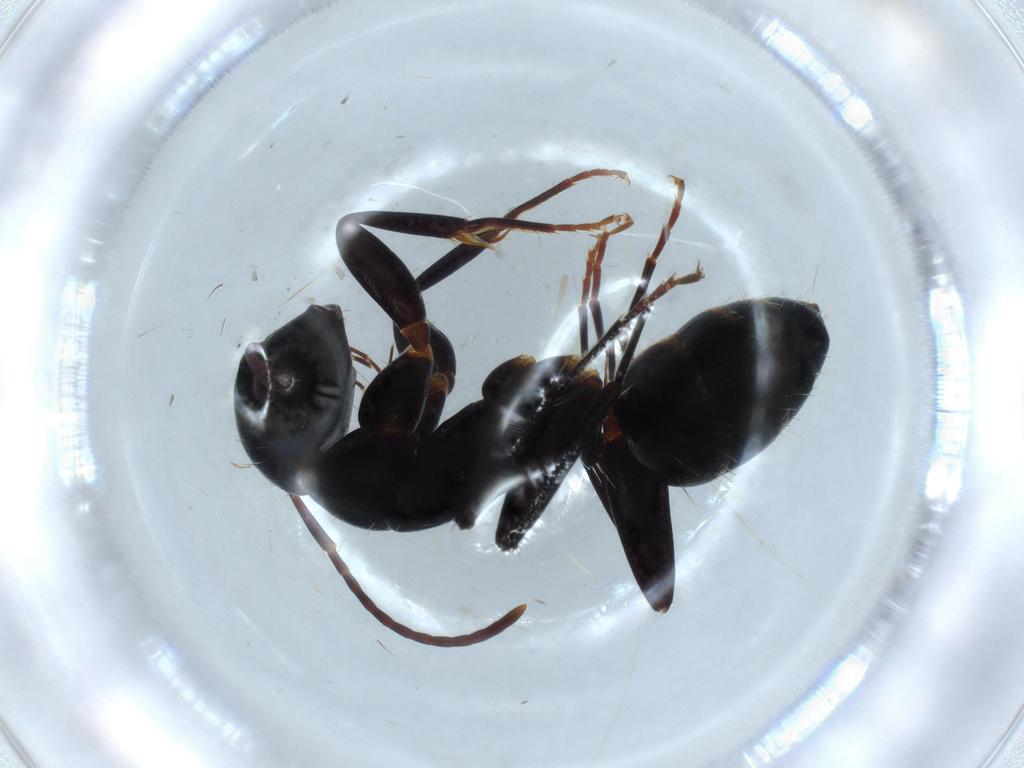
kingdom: Animalia
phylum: Arthropoda
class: Insecta
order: Hymenoptera
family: Formicidae
